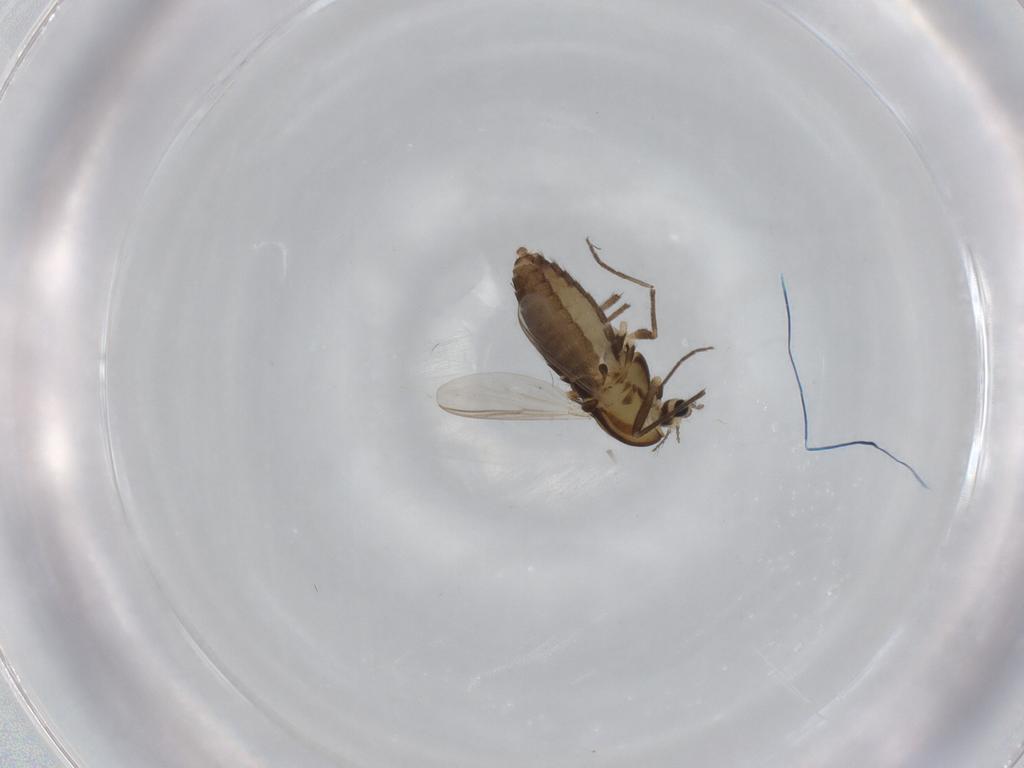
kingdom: Animalia
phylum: Arthropoda
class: Insecta
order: Diptera
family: Chironomidae
